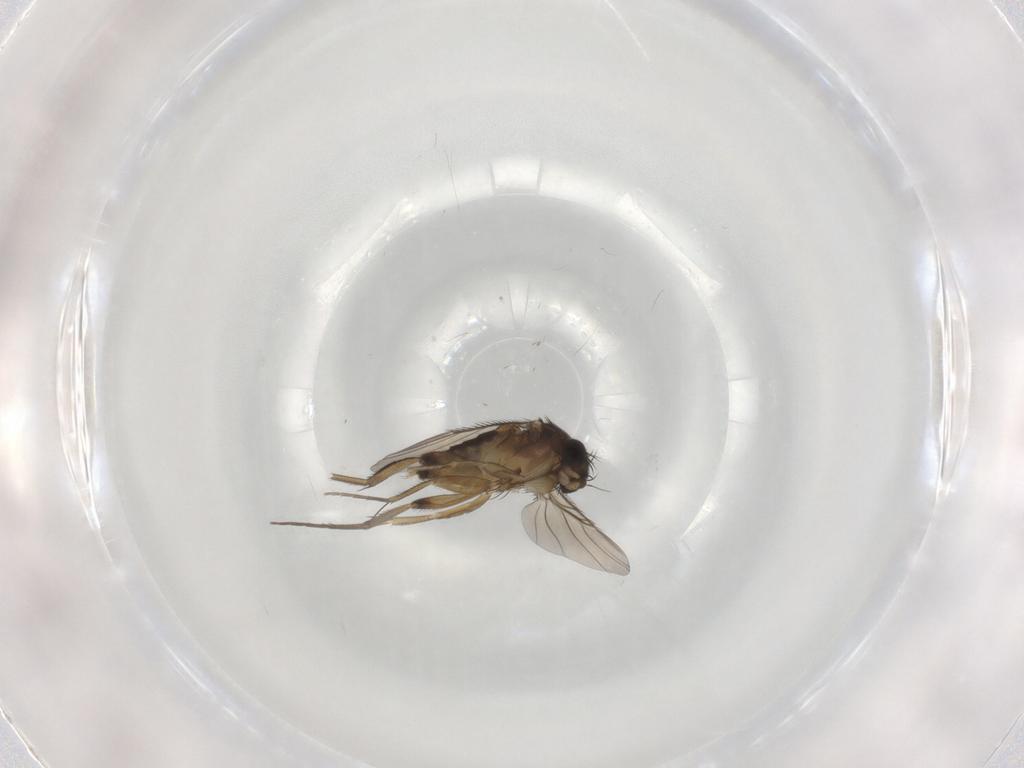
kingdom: Animalia
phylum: Arthropoda
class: Insecta
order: Diptera
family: Phoridae
